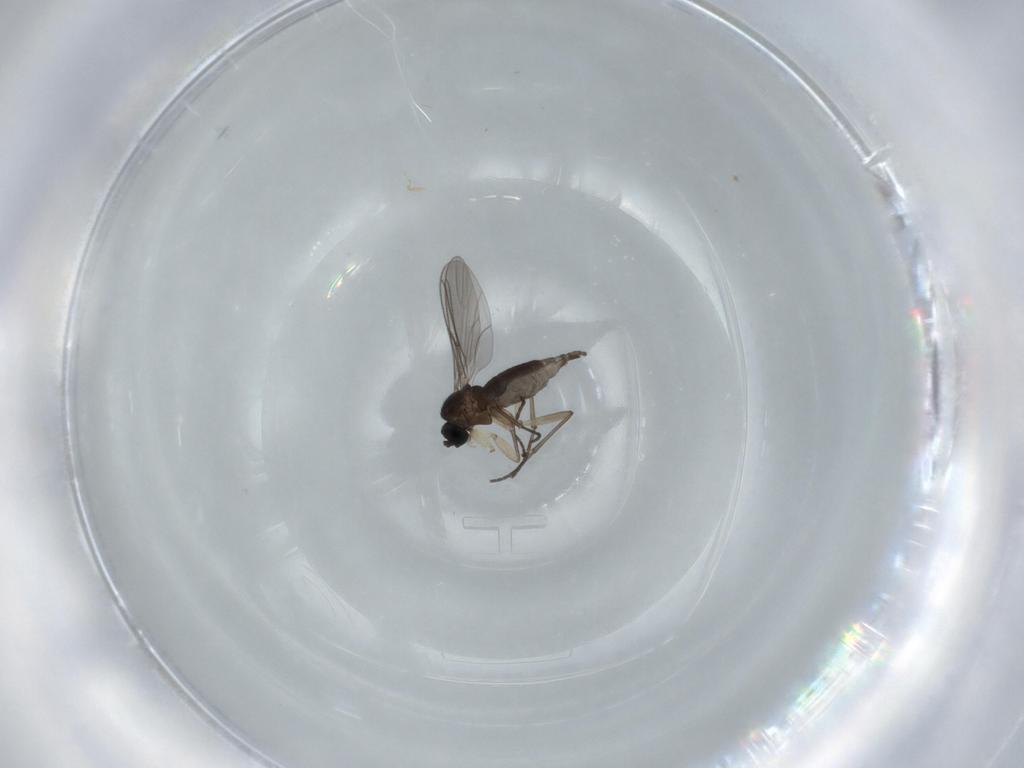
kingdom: Animalia
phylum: Arthropoda
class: Insecta
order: Diptera
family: Sciaridae
